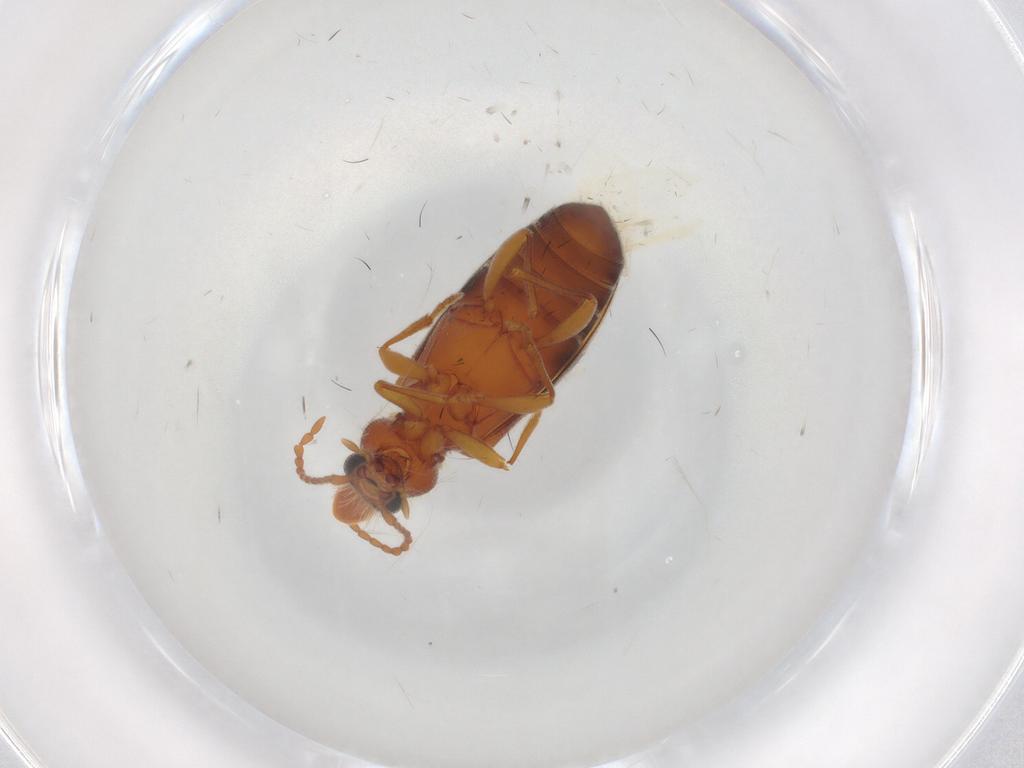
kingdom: Animalia
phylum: Arthropoda
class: Insecta
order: Coleoptera
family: Anthicidae
